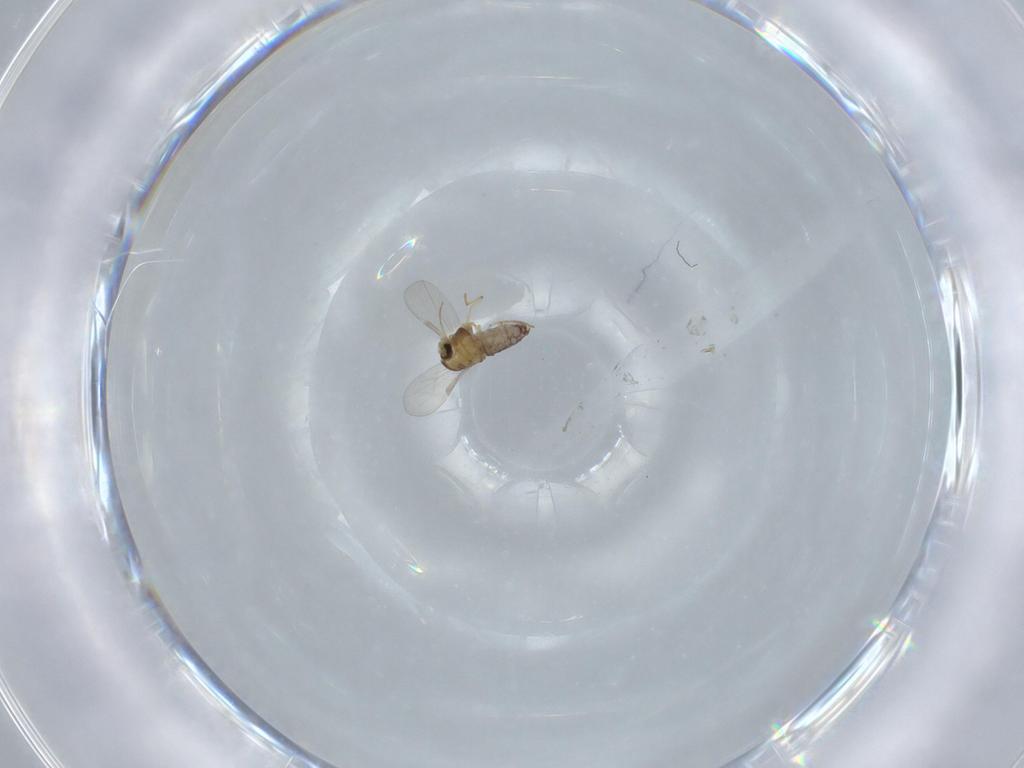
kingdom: Animalia
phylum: Arthropoda
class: Insecta
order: Diptera
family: Chironomidae
